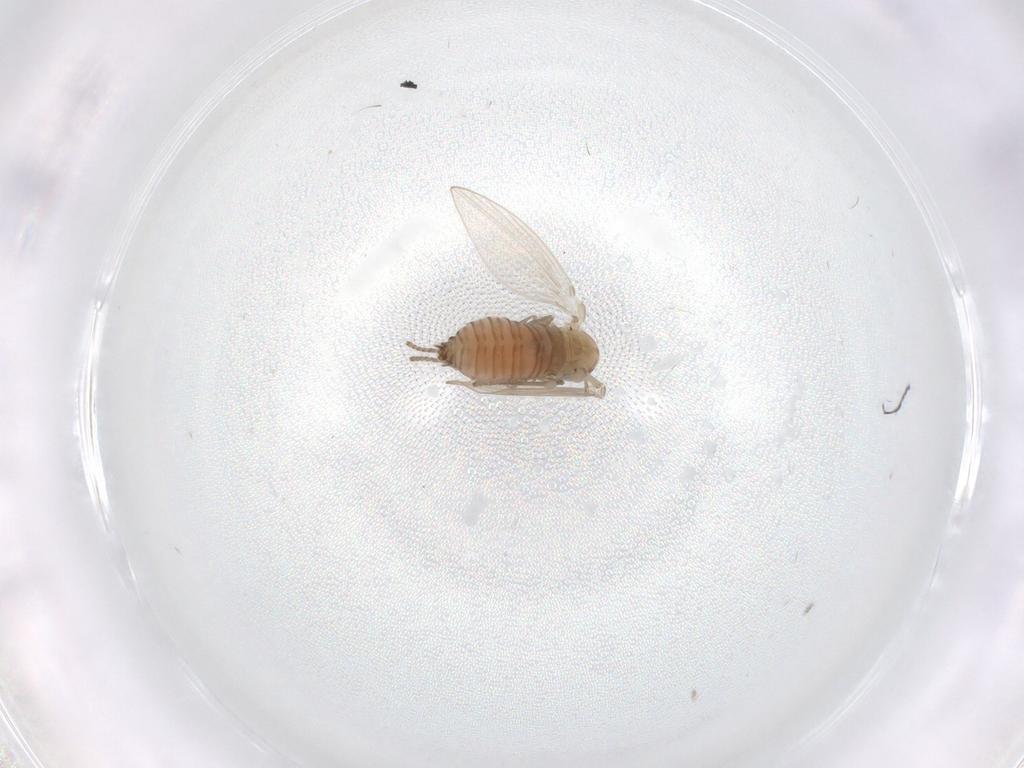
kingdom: Animalia
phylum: Arthropoda
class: Insecta
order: Diptera
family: Psychodidae
